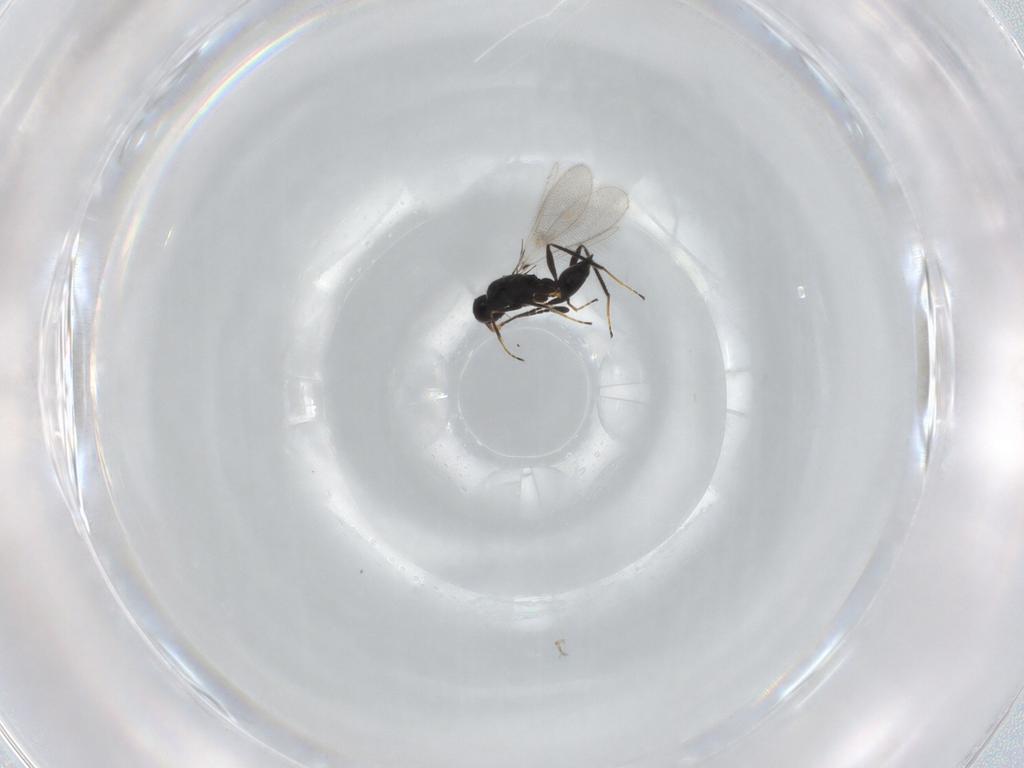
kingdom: Animalia
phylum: Arthropoda
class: Insecta
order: Hymenoptera
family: Mymaridae
